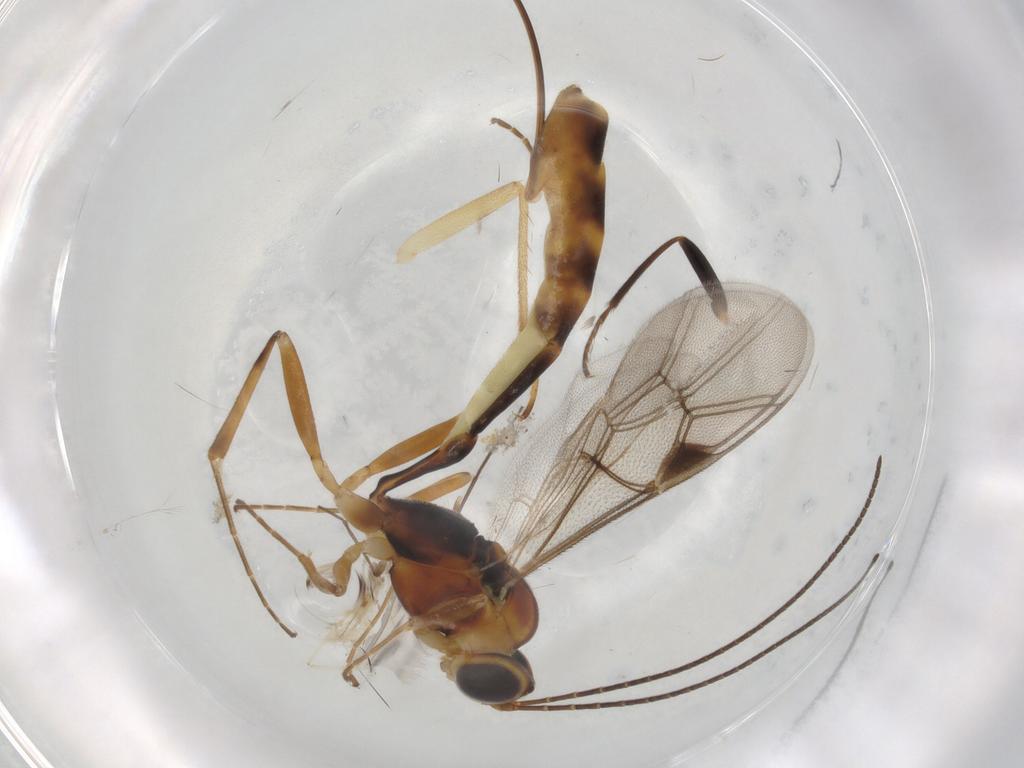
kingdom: Animalia
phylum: Arthropoda
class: Insecta
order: Hymenoptera
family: Ichneumonidae
